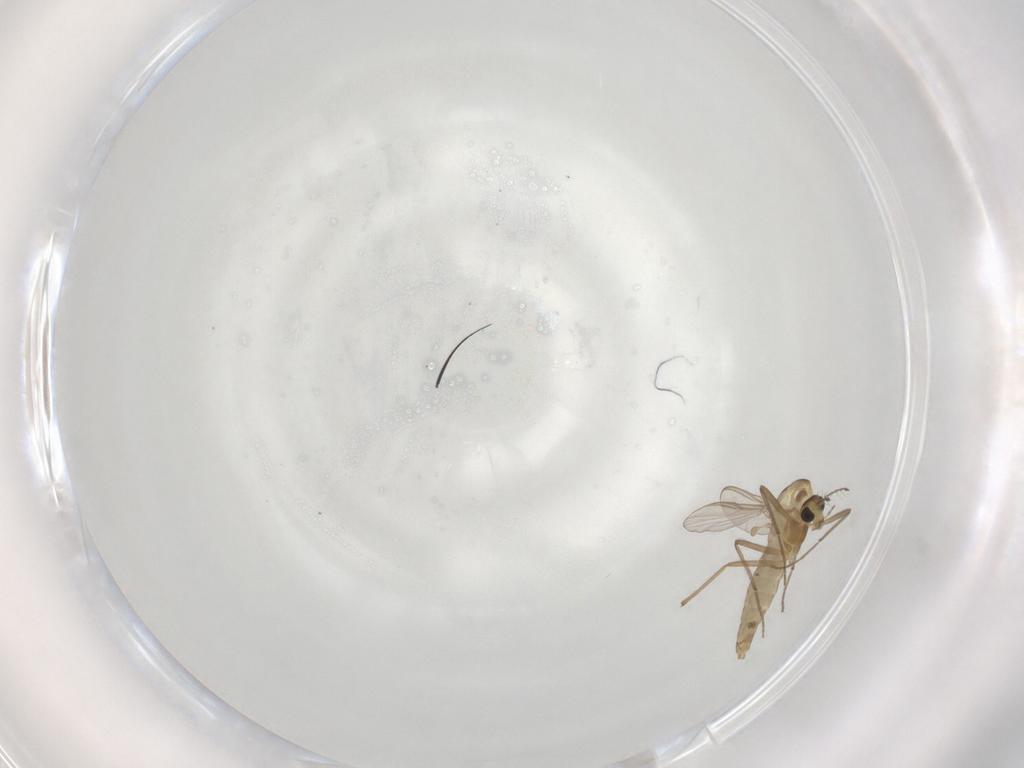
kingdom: Animalia
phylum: Arthropoda
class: Insecta
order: Diptera
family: Chironomidae
